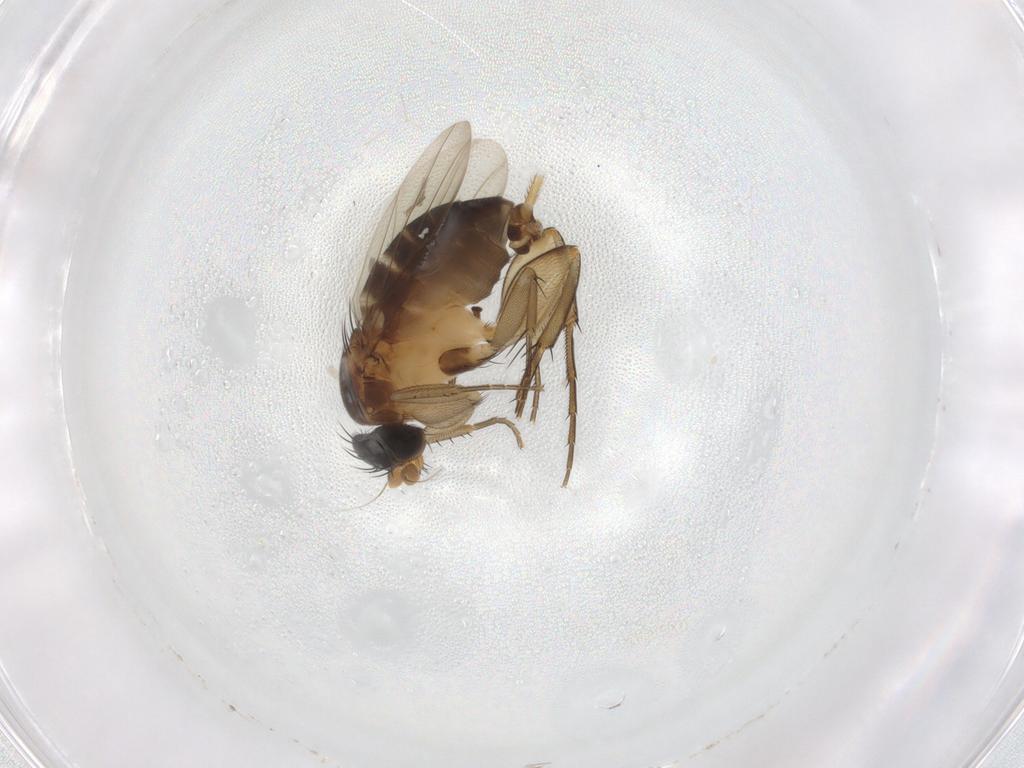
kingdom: Animalia
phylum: Arthropoda
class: Insecta
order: Diptera
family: Phoridae
